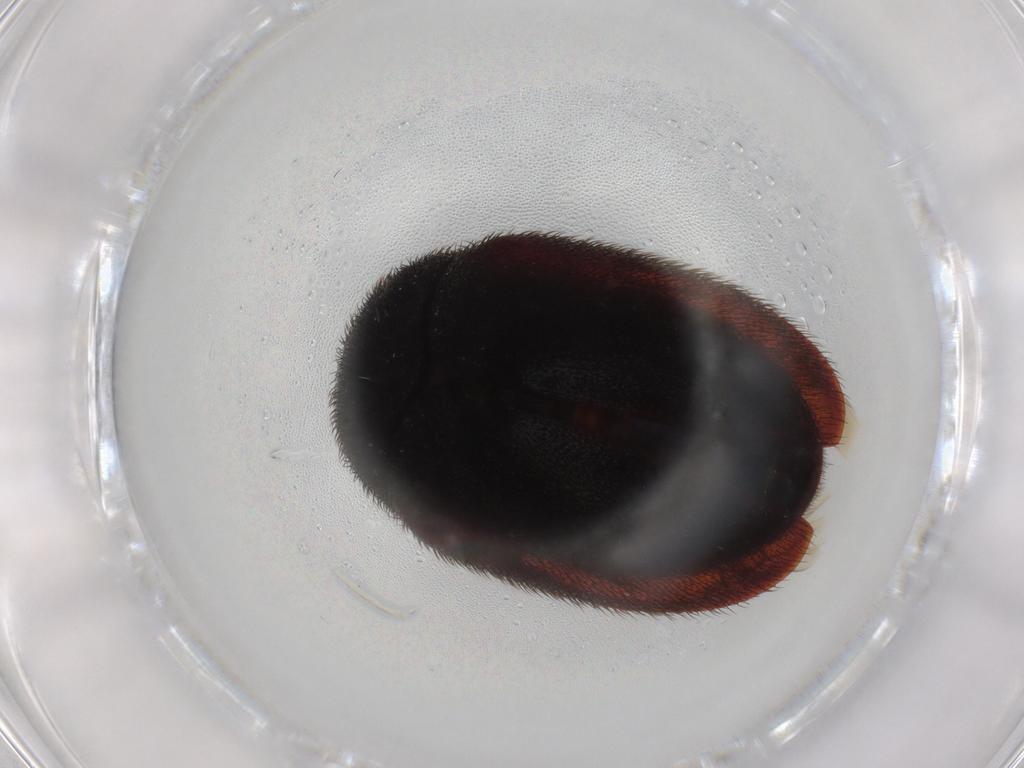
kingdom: Animalia
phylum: Arthropoda
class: Insecta
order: Coleoptera
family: Dermestidae
